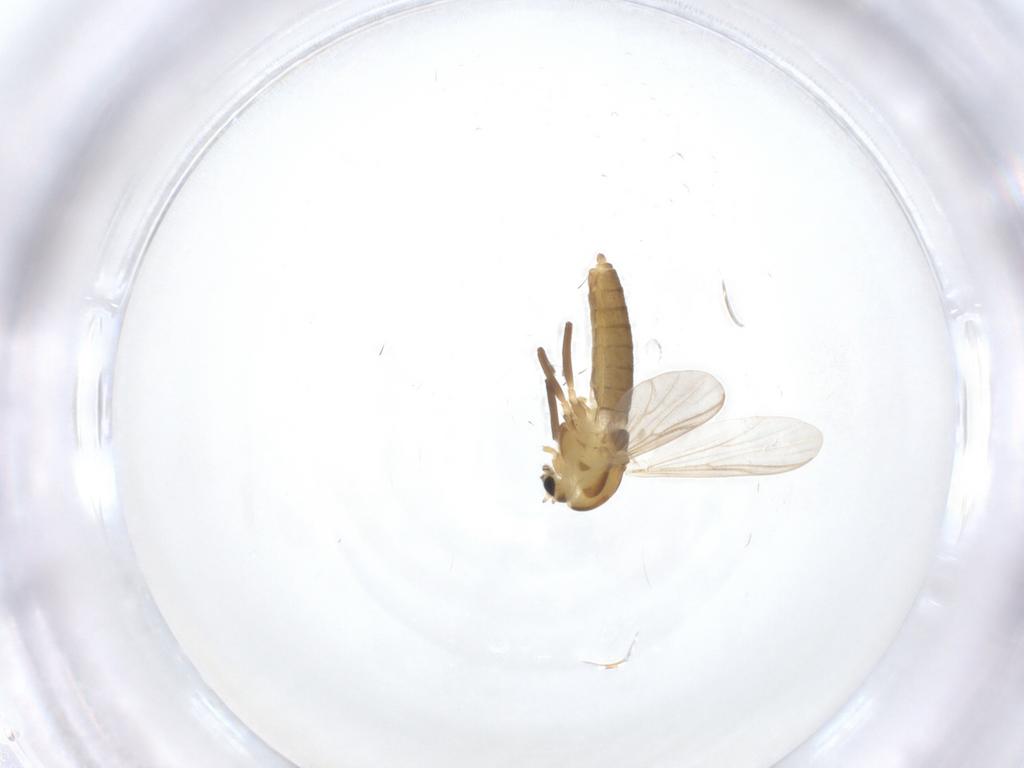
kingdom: Animalia
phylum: Arthropoda
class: Insecta
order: Diptera
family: Chironomidae
